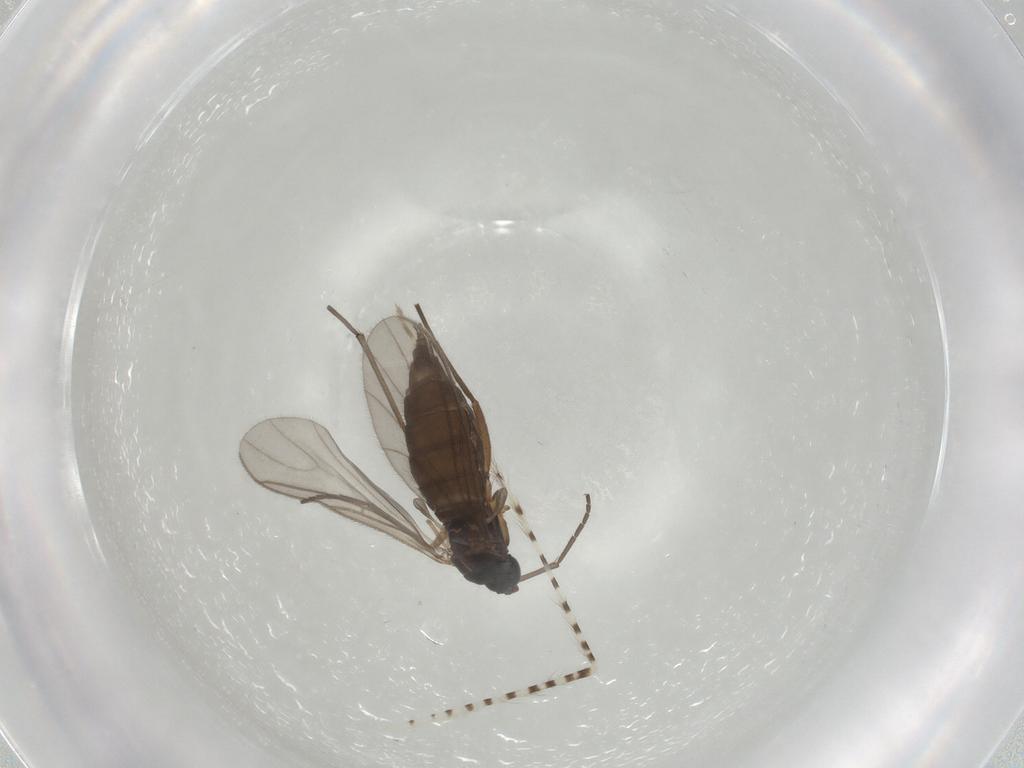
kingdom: Animalia
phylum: Arthropoda
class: Insecta
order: Diptera
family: Sciaridae
